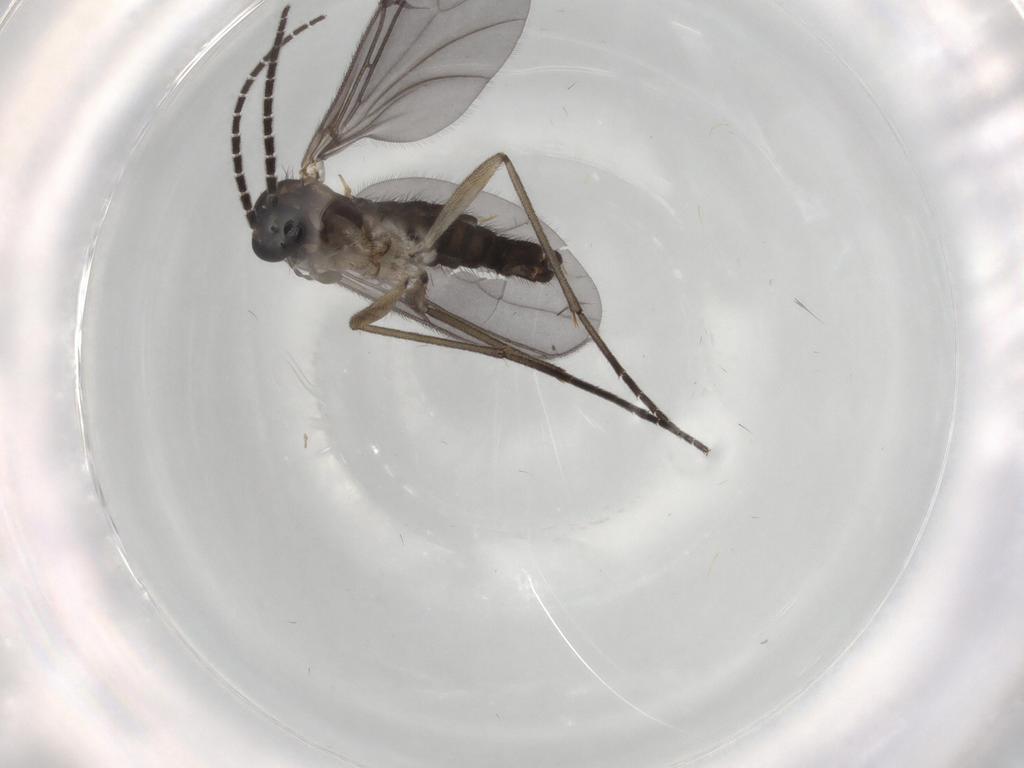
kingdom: Animalia
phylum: Arthropoda
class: Insecta
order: Diptera
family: Sciaridae
